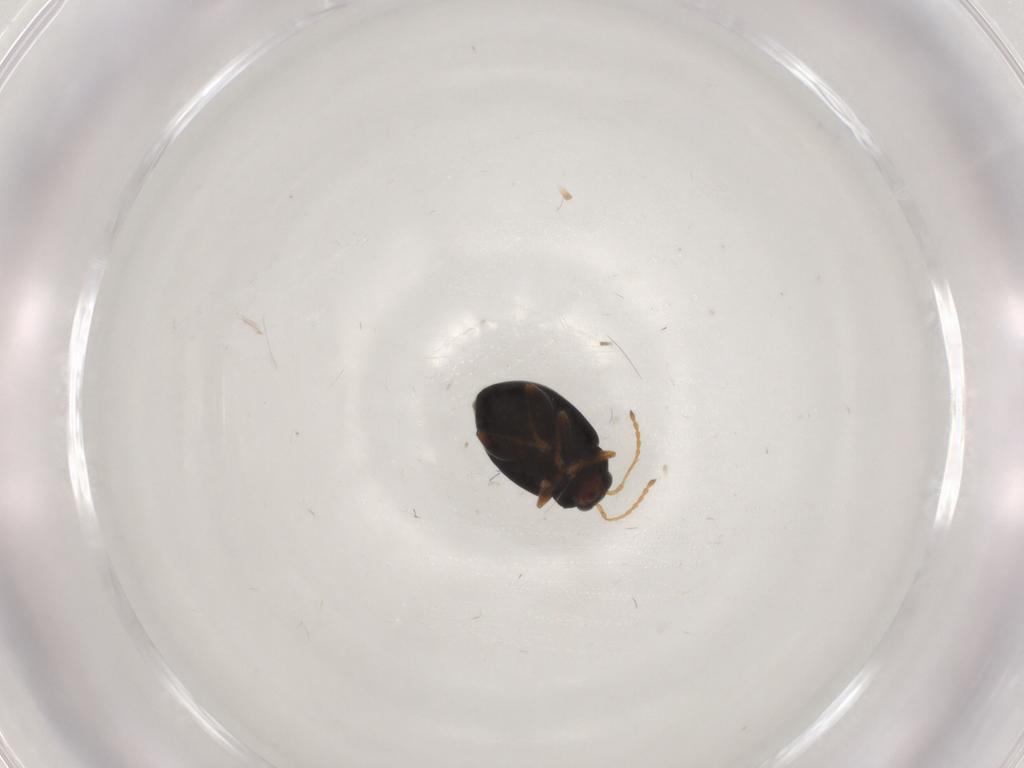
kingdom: Animalia
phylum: Arthropoda
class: Insecta
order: Coleoptera
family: Chrysomelidae
